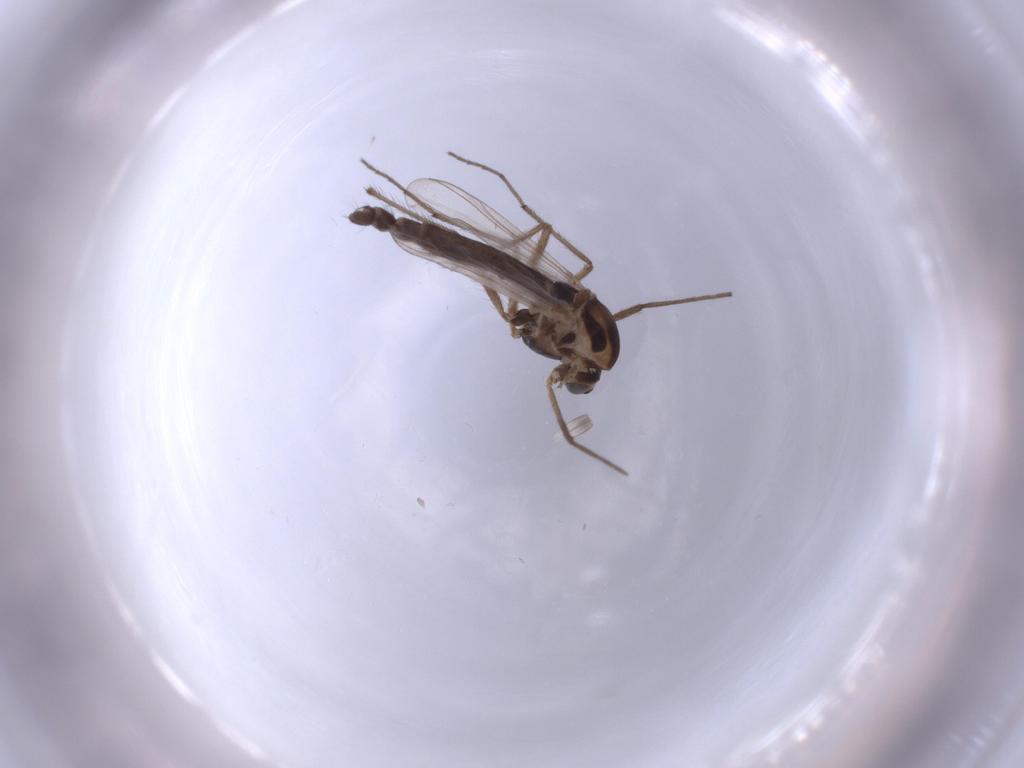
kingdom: Animalia
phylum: Arthropoda
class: Insecta
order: Diptera
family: Chironomidae
